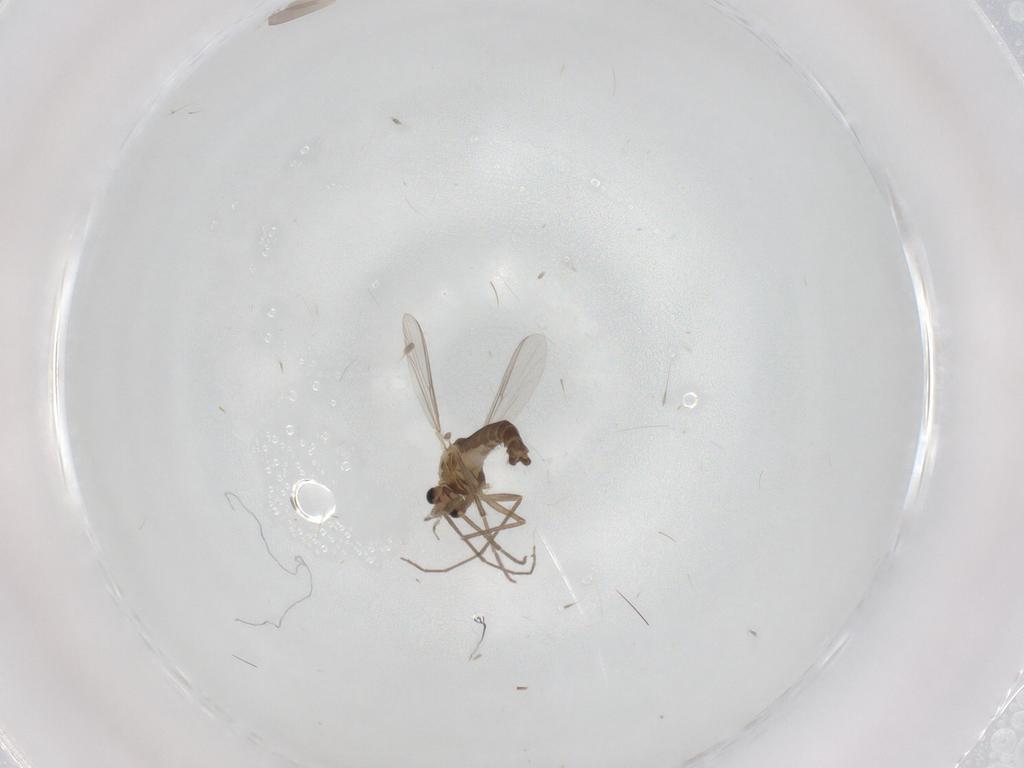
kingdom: Animalia
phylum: Arthropoda
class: Insecta
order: Diptera
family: Chironomidae
